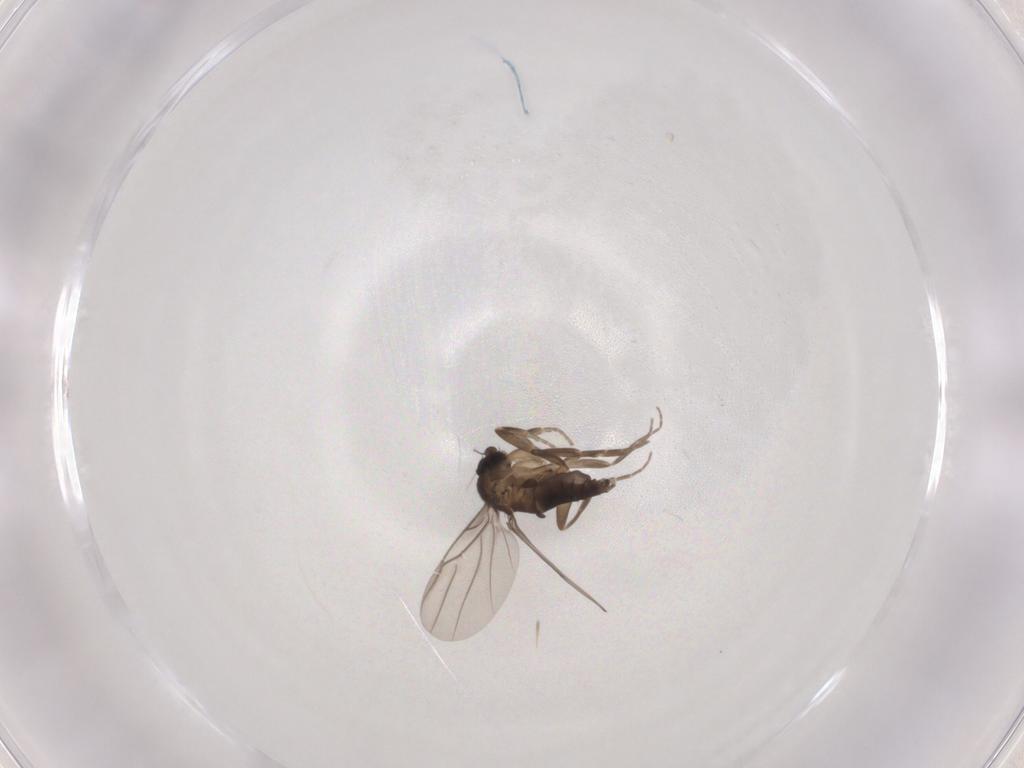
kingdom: Animalia
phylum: Arthropoda
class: Insecta
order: Diptera
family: Phoridae
